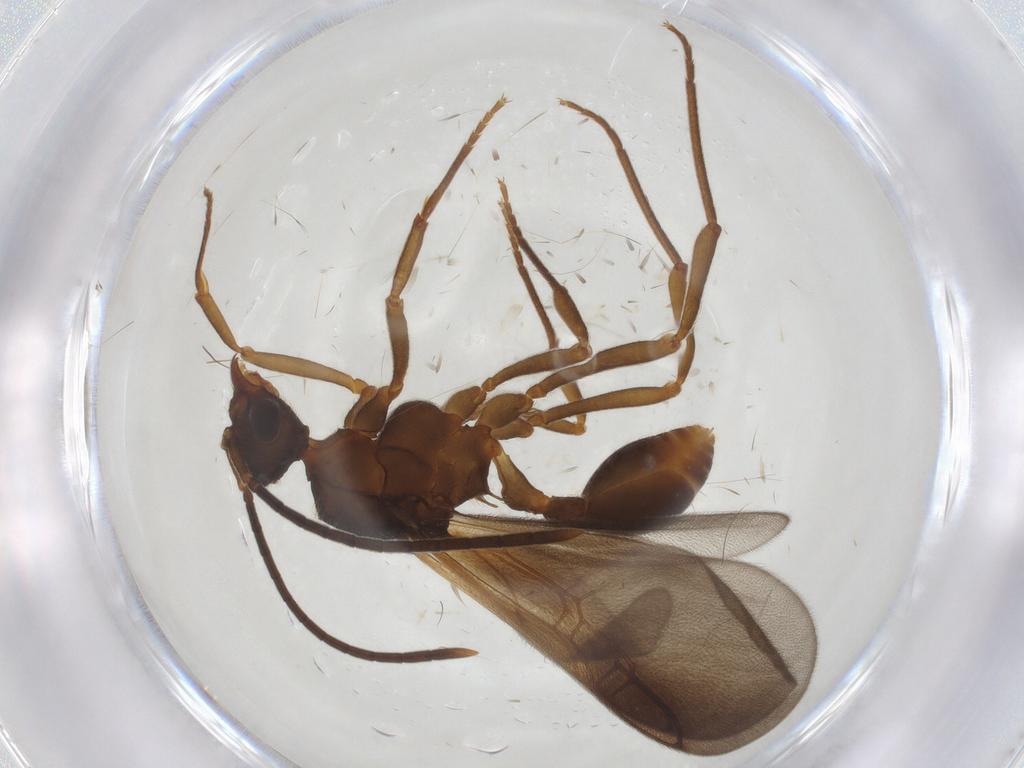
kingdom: Animalia
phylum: Arthropoda
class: Insecta
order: Hymenoptera
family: Formicidae
